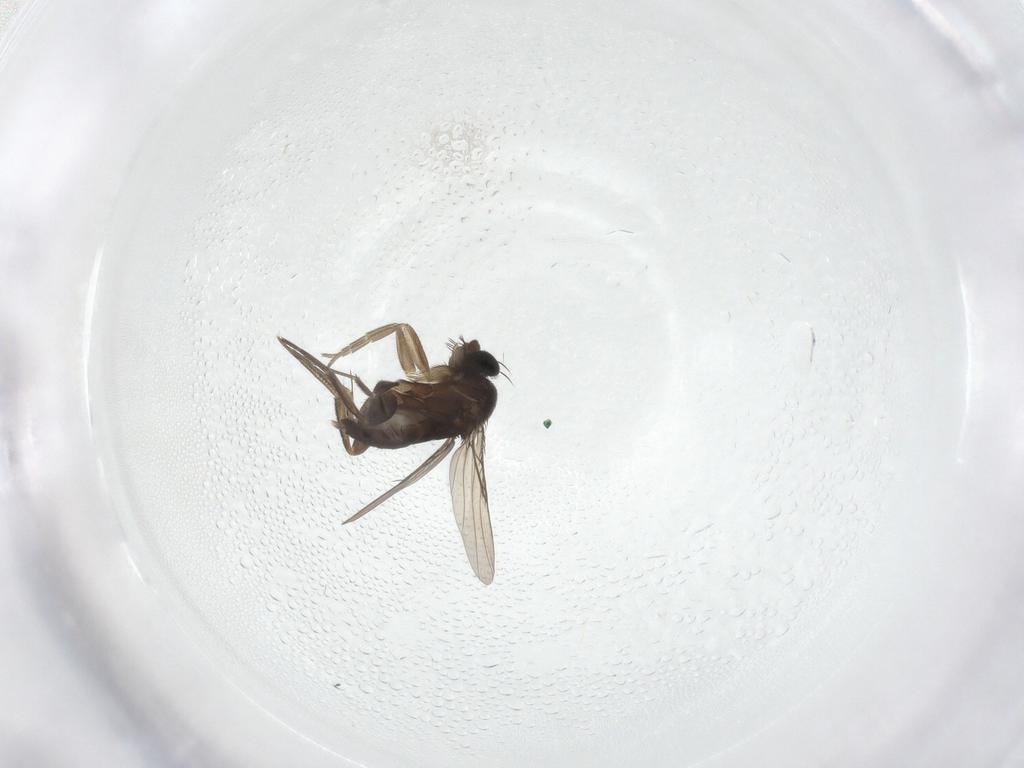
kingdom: Animalia
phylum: Arthropoda
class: Insecta
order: Diptera
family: Phoridae
